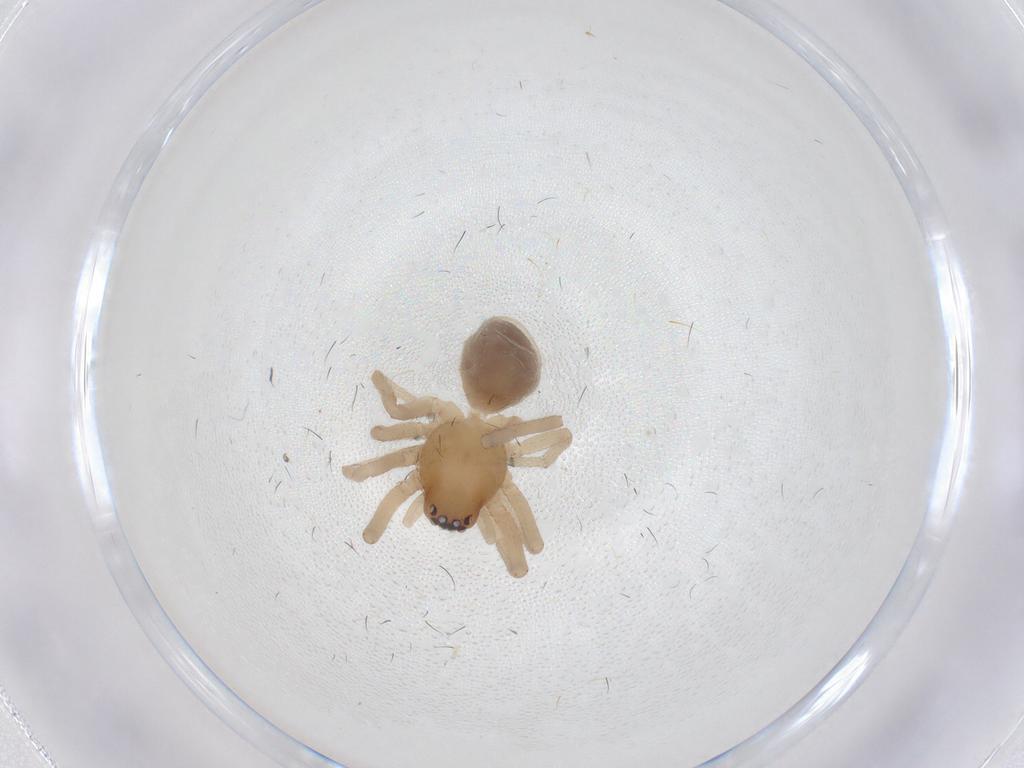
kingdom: Animalia
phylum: Arthropoda
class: Arachnida
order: Araneae
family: Trachelidae
